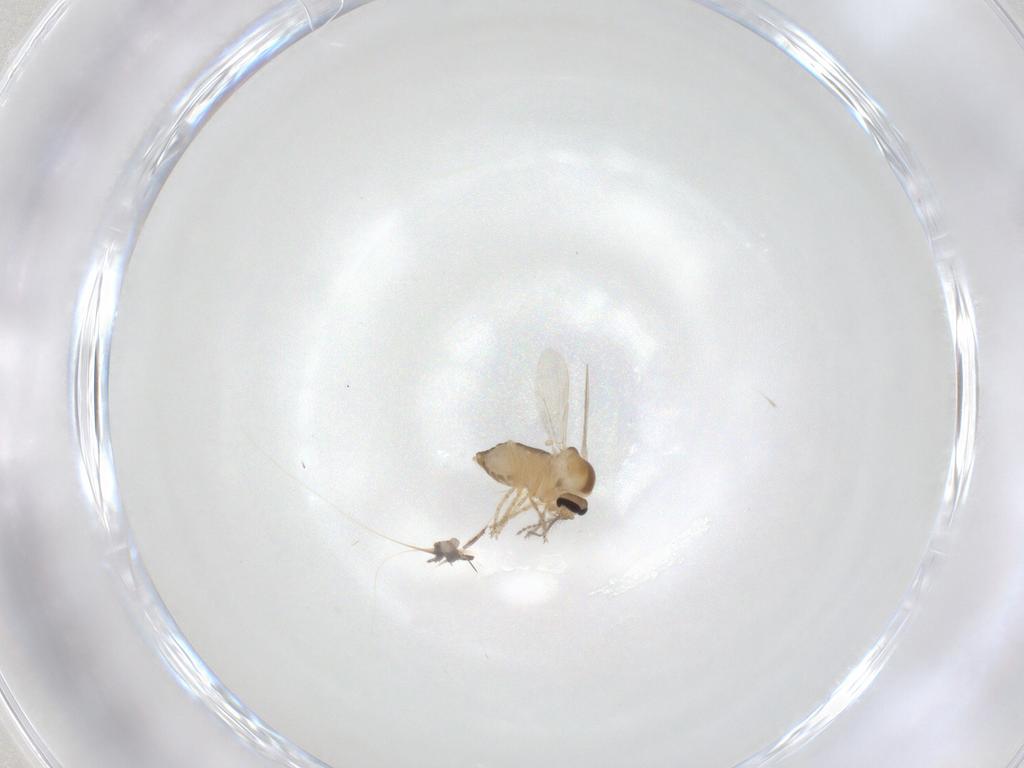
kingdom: Animalia
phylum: Arthropoda
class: Insecta
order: Diptera
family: Ceratopogonidae
